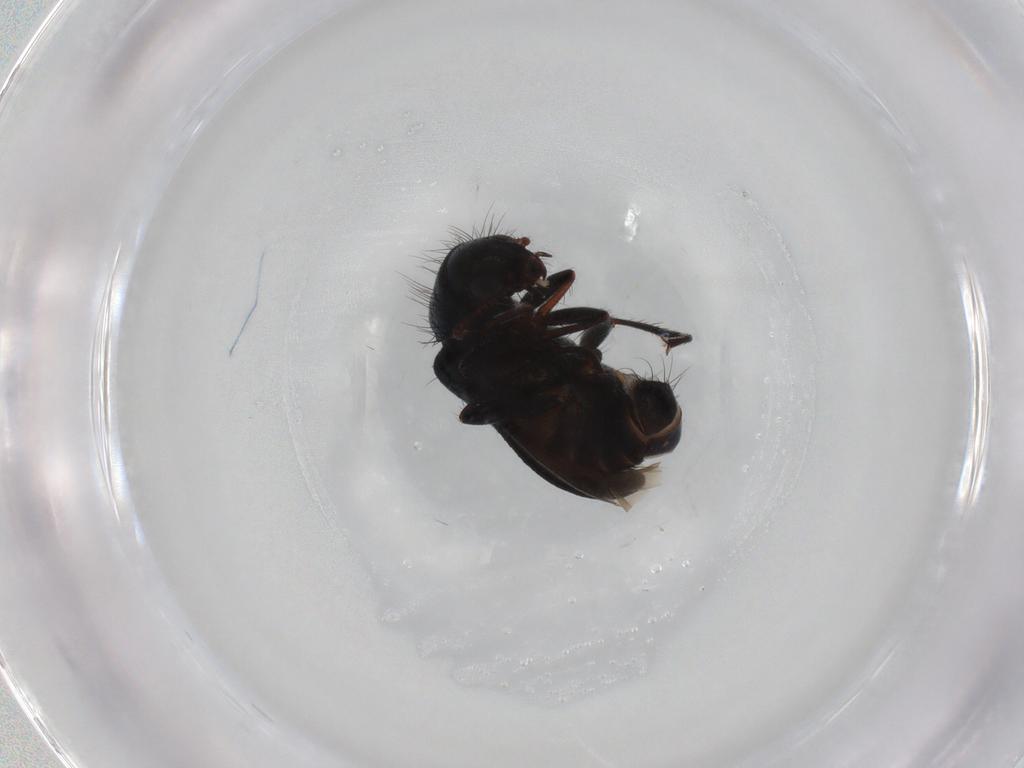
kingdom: Animalia
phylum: Arthropoda
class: Insecta
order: Coleoptera
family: Melyridae
